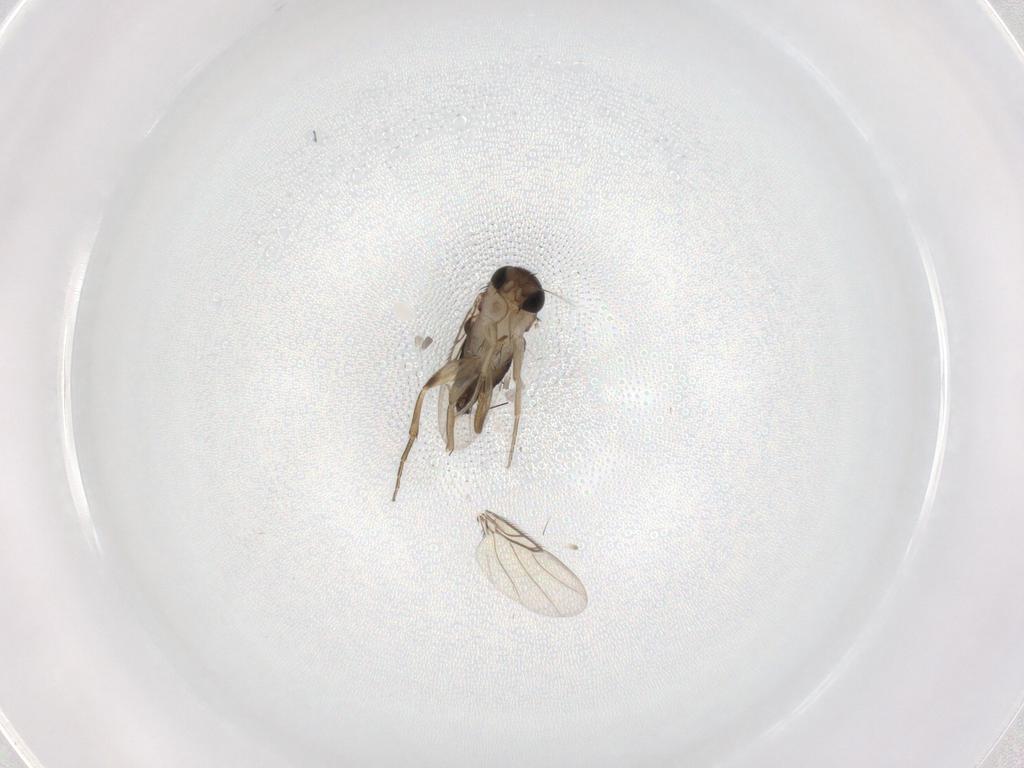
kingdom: Animalia
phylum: Arthropoda
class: Insecta
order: Diptera
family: Phoridae
